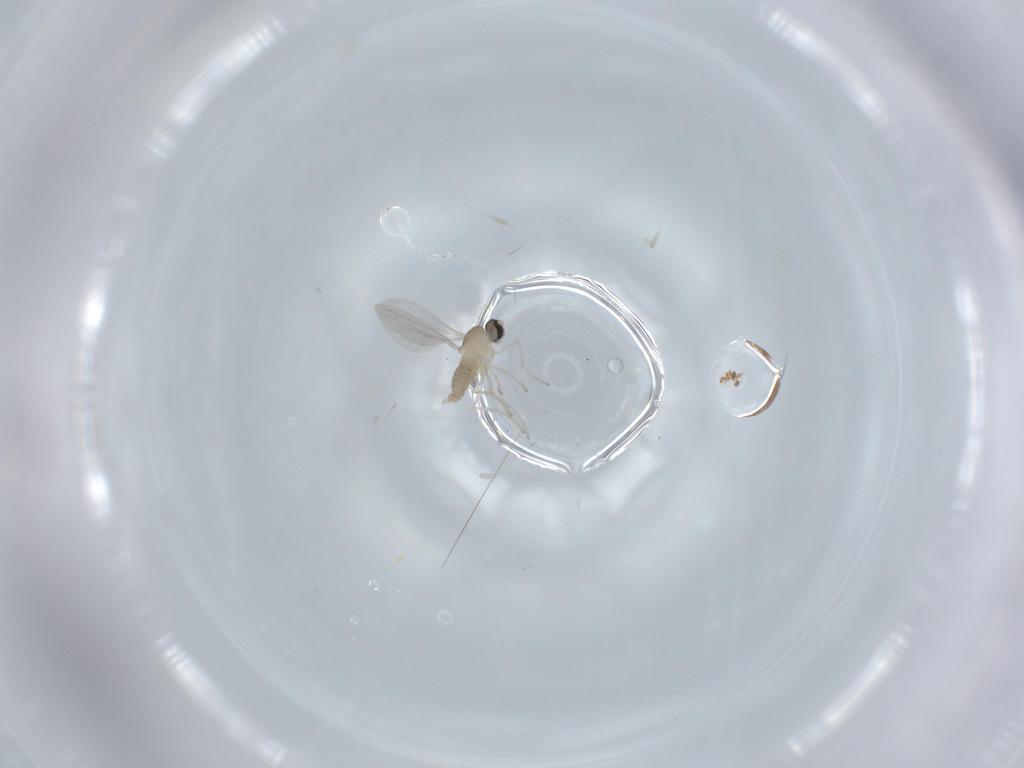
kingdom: Animalia
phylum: Arthropoda
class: Insecta
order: Diptera
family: Cecidomyiidae
